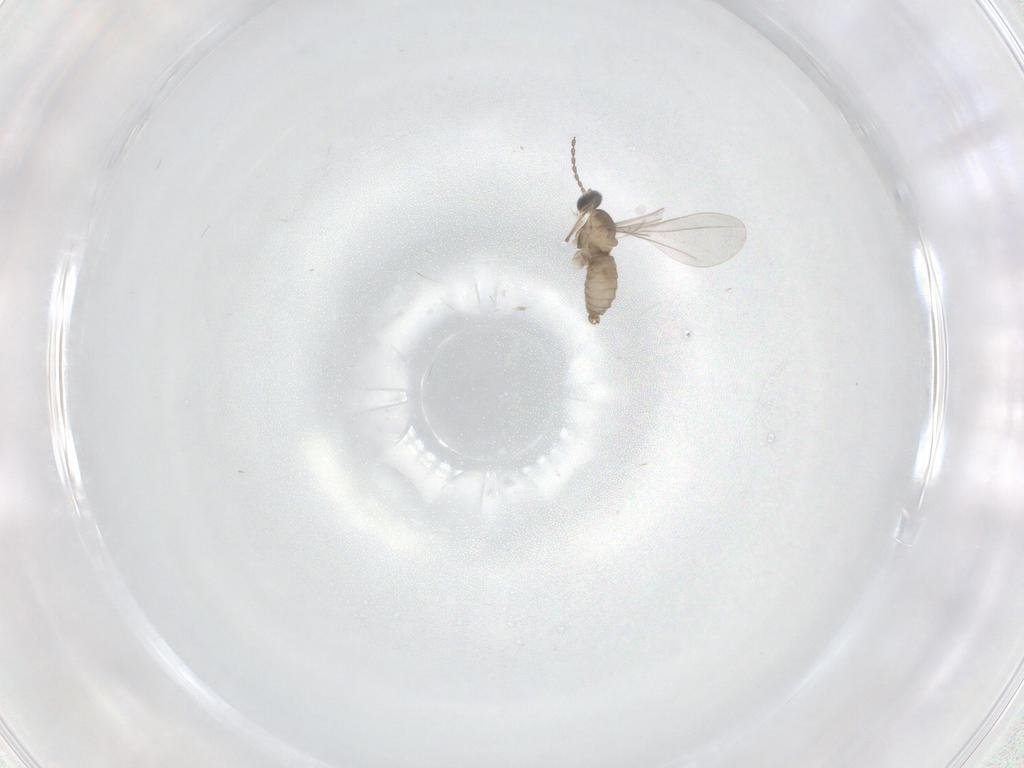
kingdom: Animalia
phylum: Arthropoda
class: Insecta
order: Diptera
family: Chironomidae
